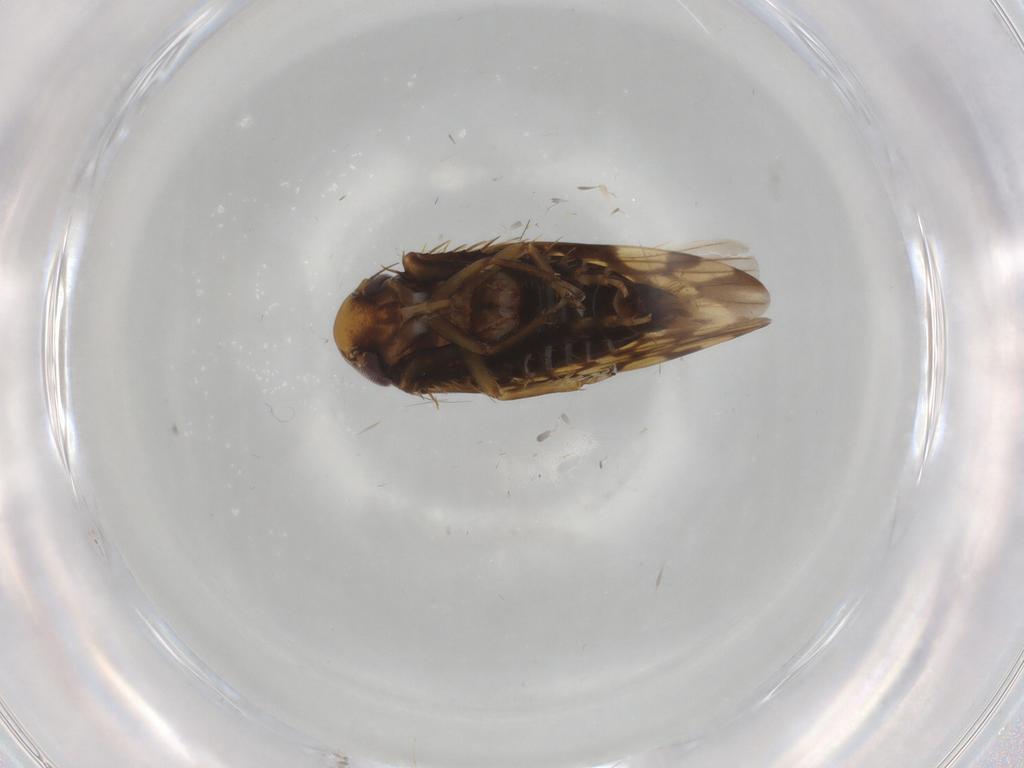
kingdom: Animalia
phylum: Arthropoda
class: Insecta
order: Hemiptera
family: Cicadellidae
